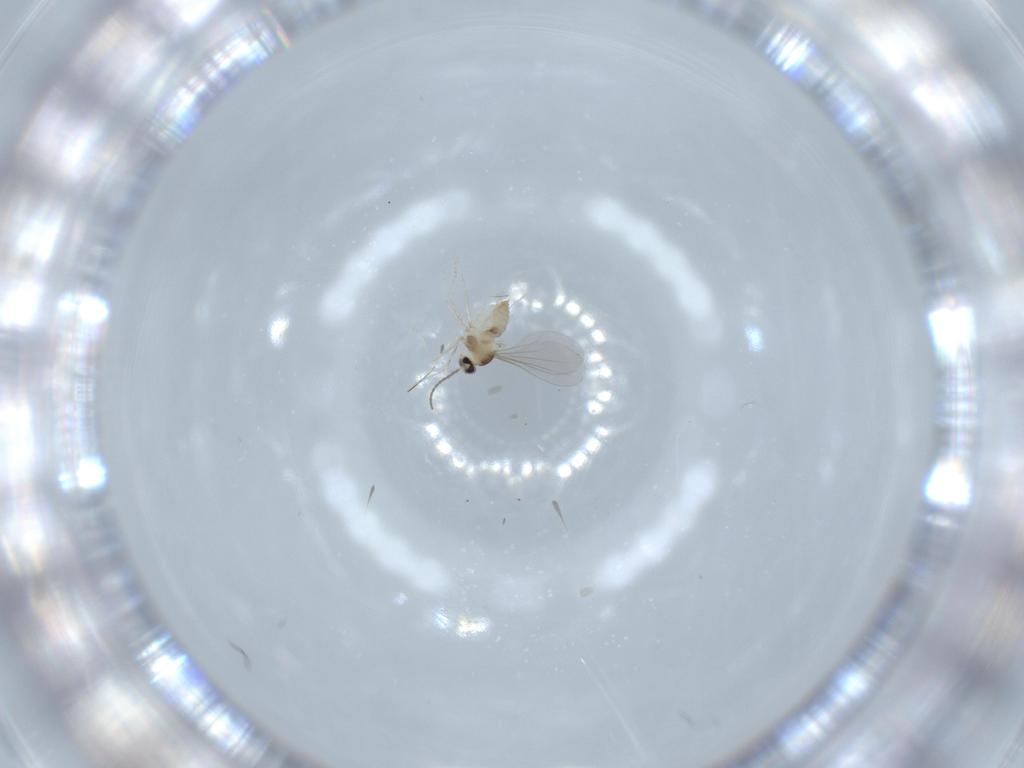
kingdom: Animalia
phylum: Arthropoda
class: Insecta
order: Diptera
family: Cecidomyiidae
